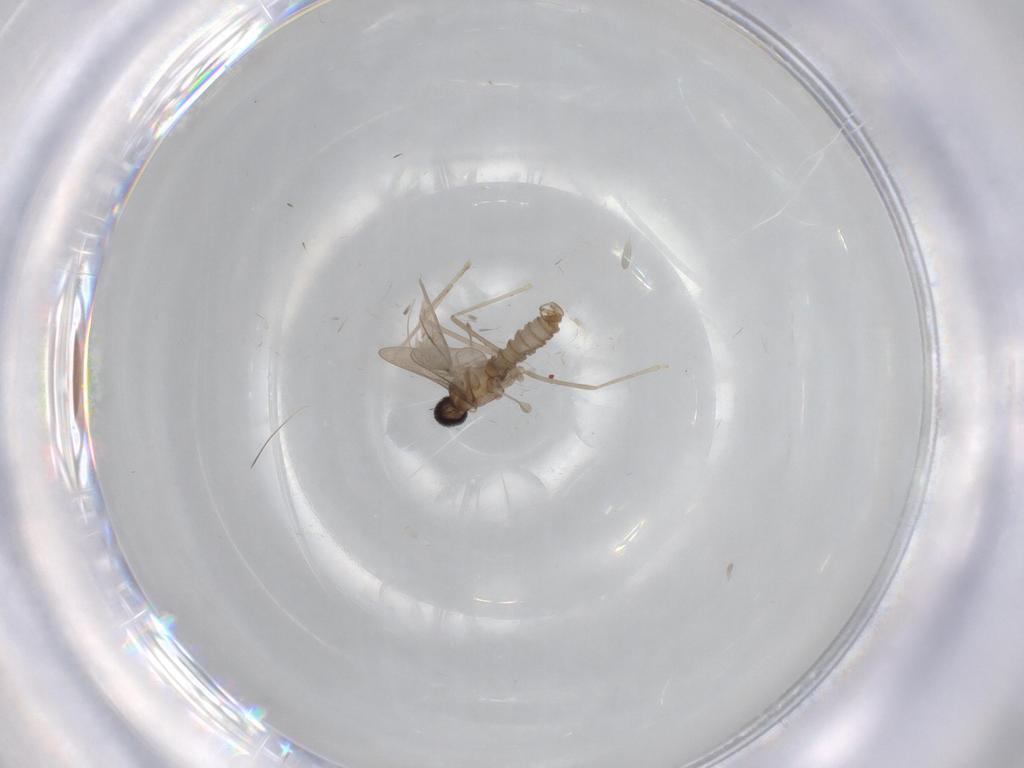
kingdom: Animalia
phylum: Arthropoda
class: Insecta
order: Diptera
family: Cecidomyiidae
